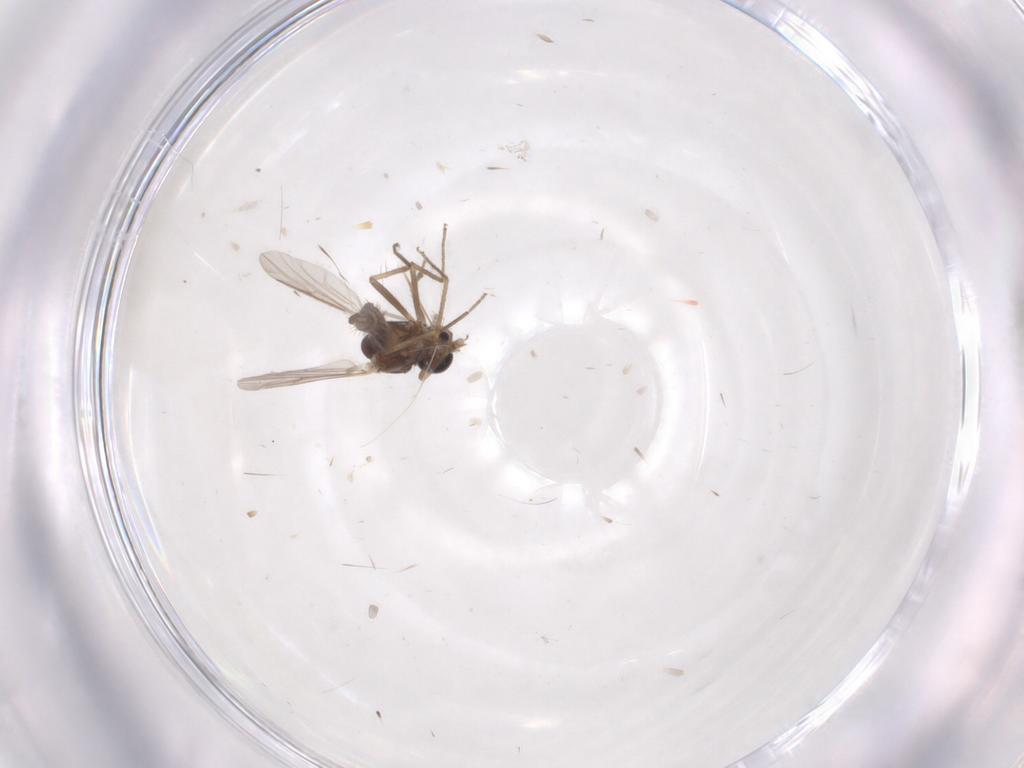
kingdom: Animalia
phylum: Arthropoda
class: Insecta
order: Diptera
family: Ceratopogonidae
